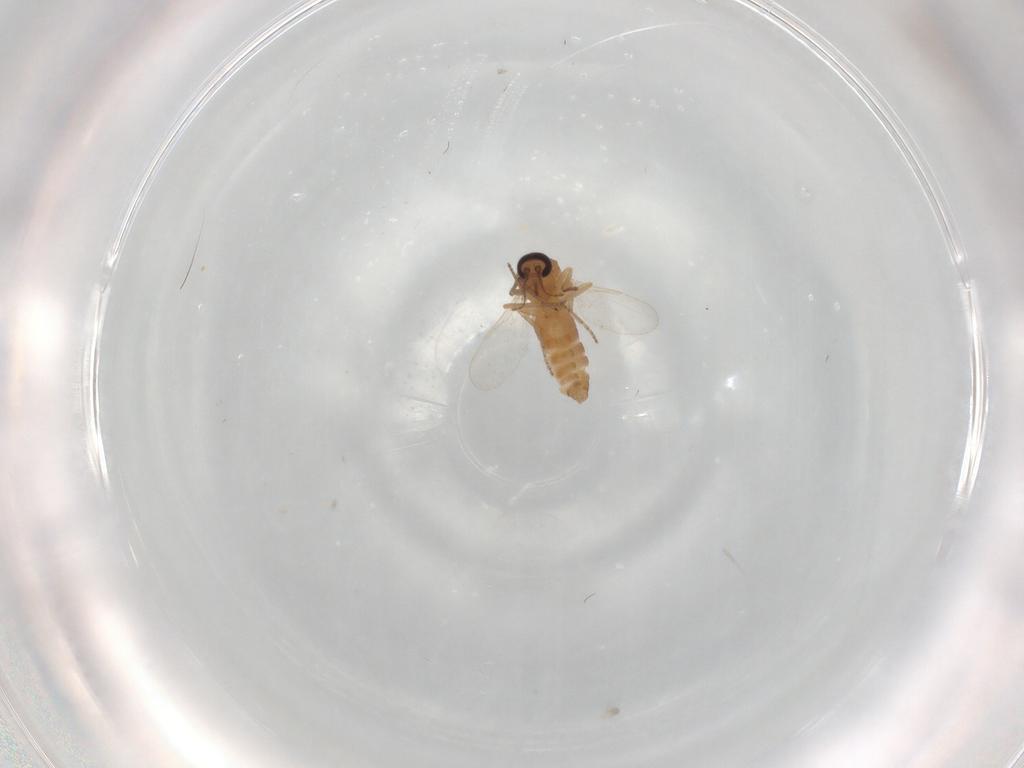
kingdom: Animalia
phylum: Arthropoda
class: Insecta
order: Diptera
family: Ceratopogonidae
